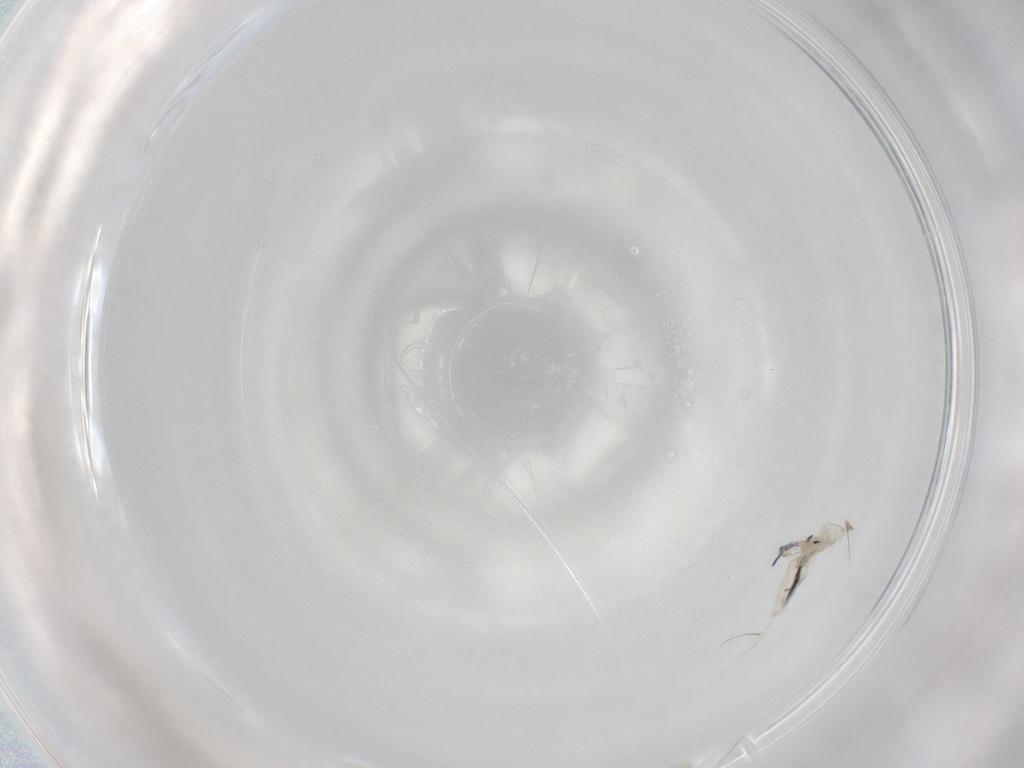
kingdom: Animalia
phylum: Arthropoda
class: Collembola
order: Entomobryomorpha
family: Entomobryidae
